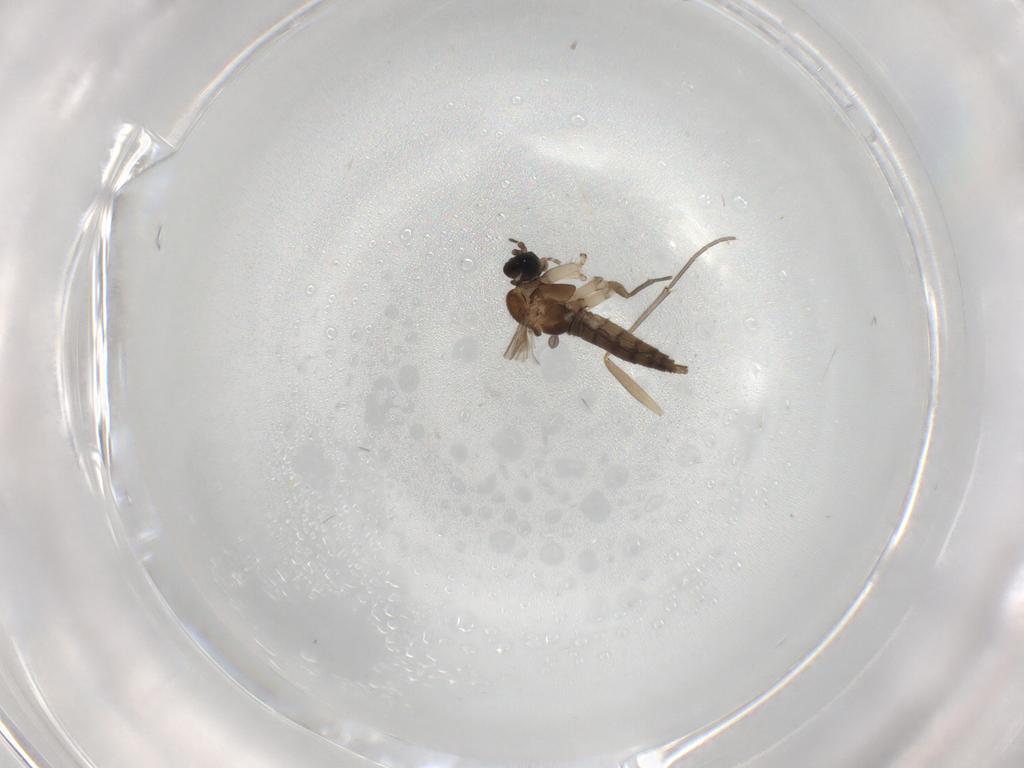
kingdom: Animalia
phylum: Arthropoda
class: Insecta
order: Diptera
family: Sciaridae
